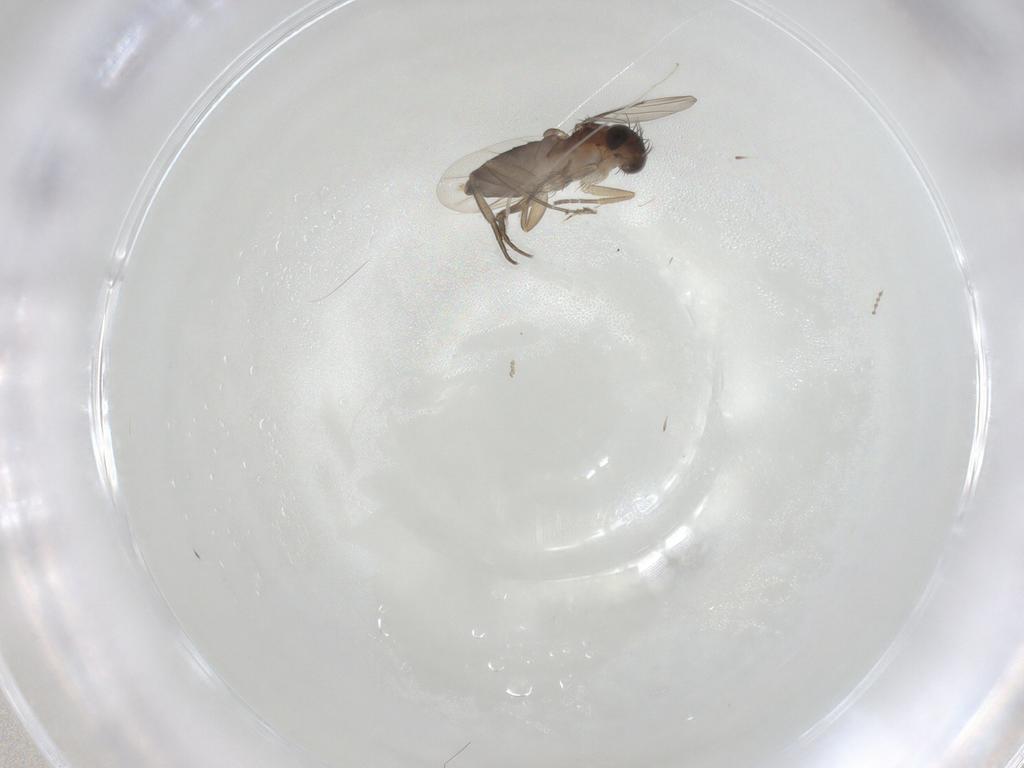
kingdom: Animalia
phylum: Arthropoda
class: Insecta
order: Diptera
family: Phoridae
